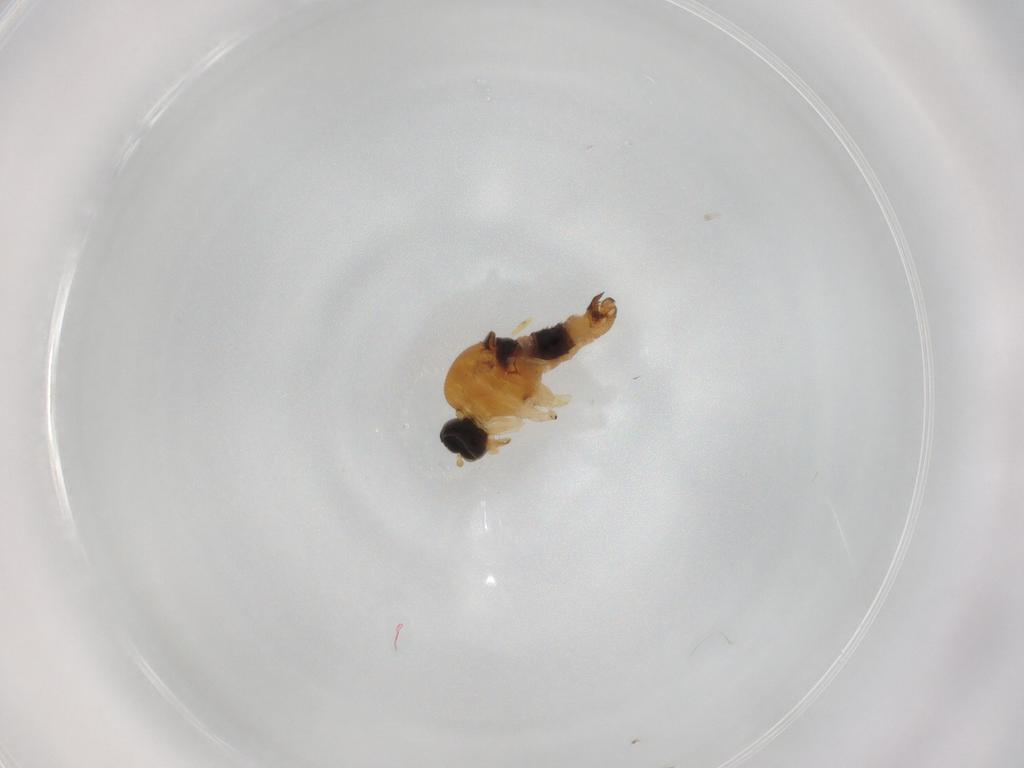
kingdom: Animalia
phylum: Arthropoda
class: Insecta
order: Diptera
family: Hybotidae
